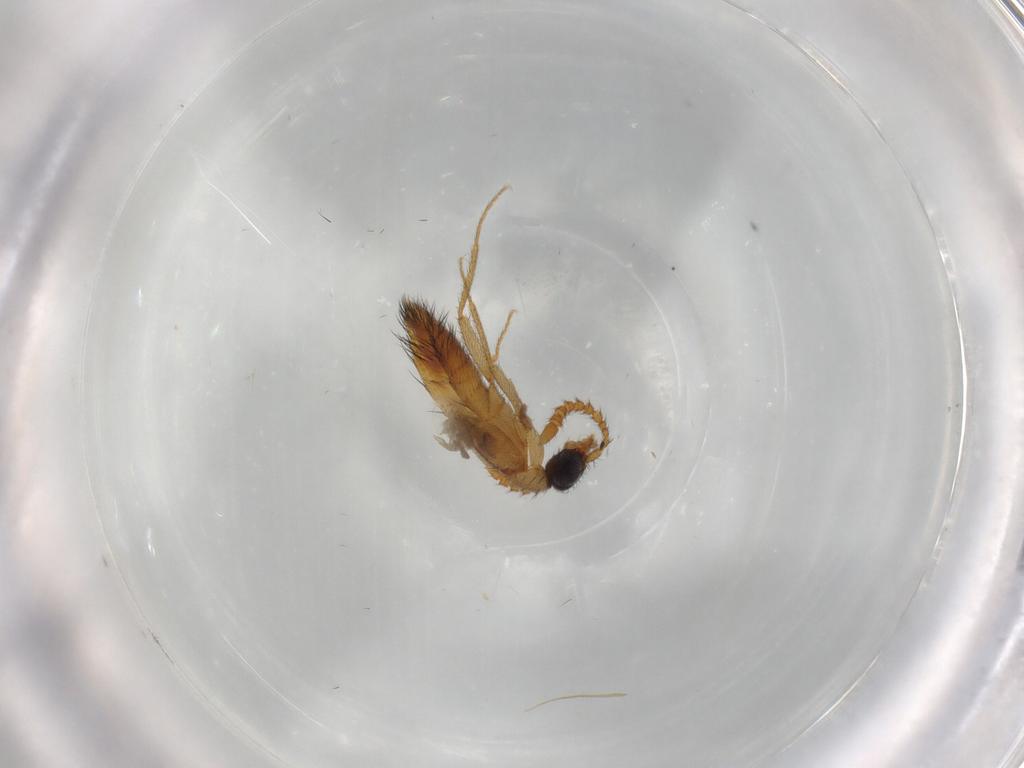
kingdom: Animalia
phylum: Arthropoda
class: Insecta
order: Coleoptera
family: Staphylinidae
